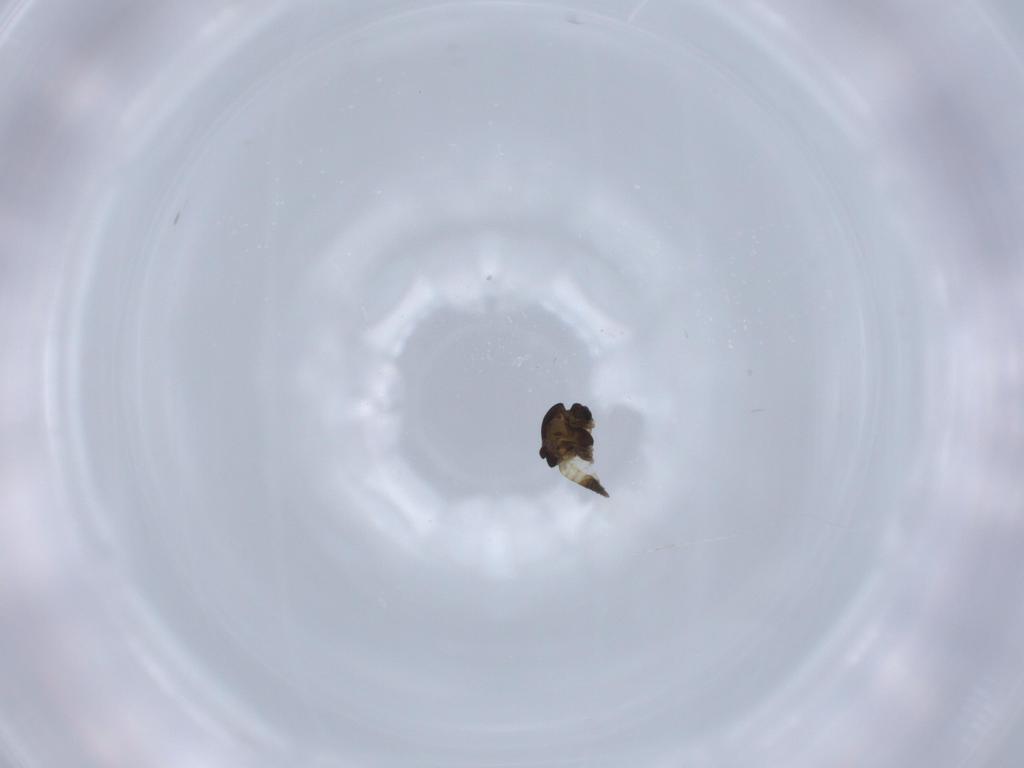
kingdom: Animalia
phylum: Arthropoda
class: Insecta
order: Diptera
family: Chironomidae
